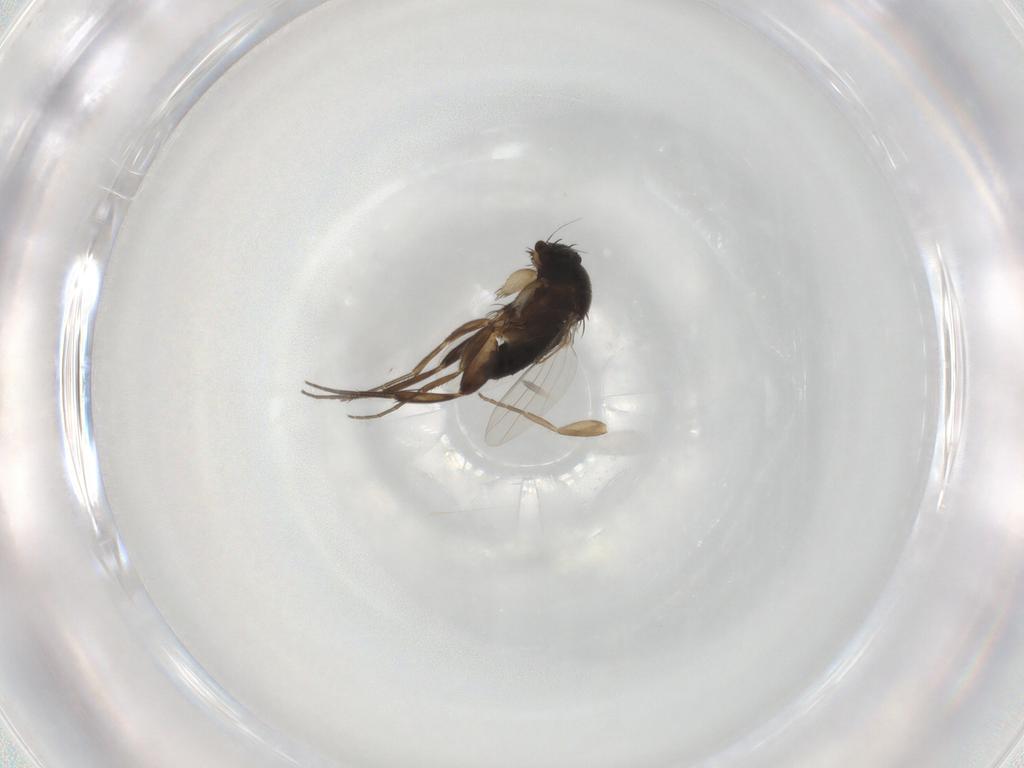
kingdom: Animalia
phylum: Arthropoda
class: Insecta
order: Diptera
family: Phoridae
